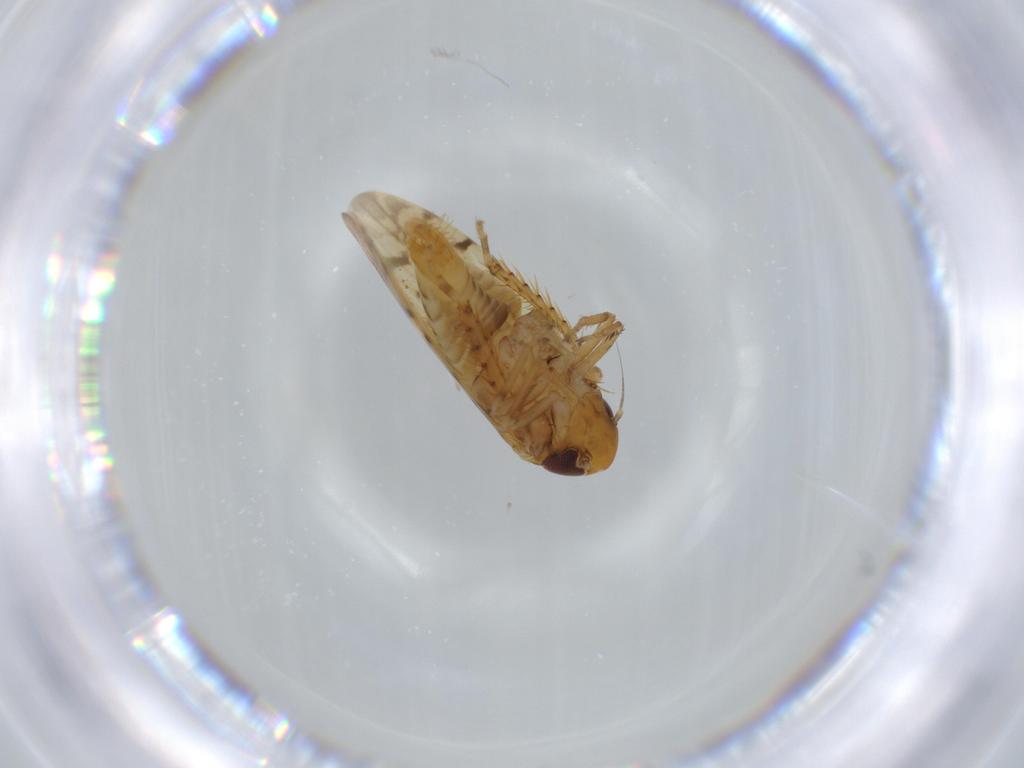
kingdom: Animalia
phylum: Arthropoda
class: Insecta
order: Hemiptera
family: Cicadellidae
